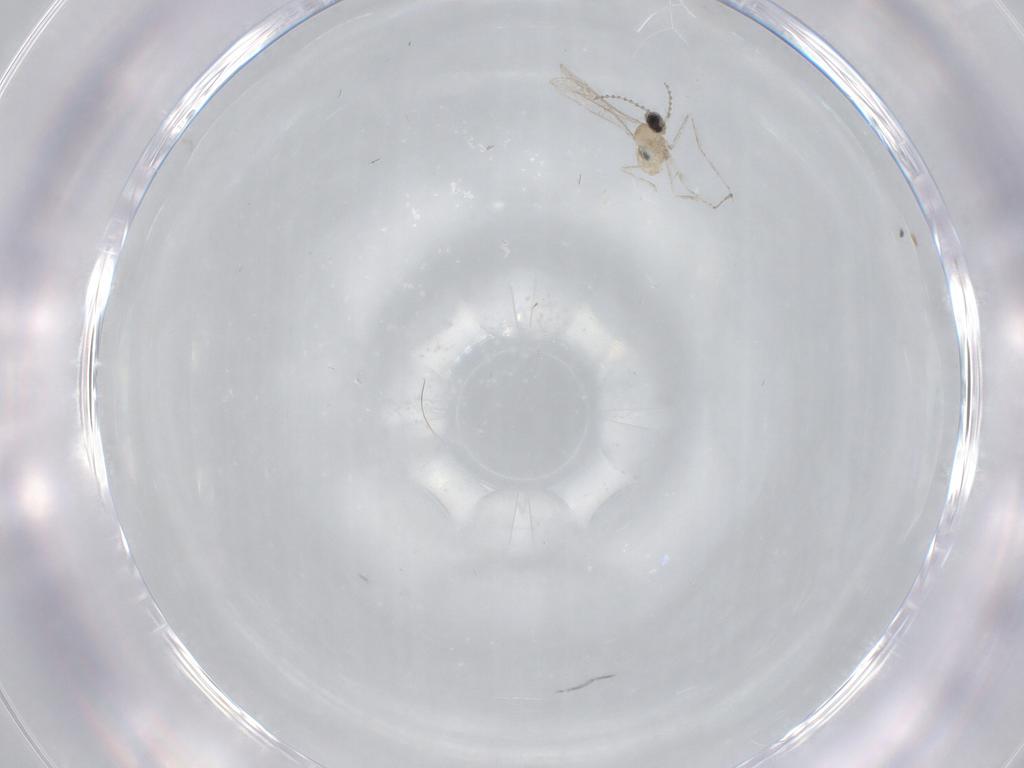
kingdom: Animalia
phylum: Arthropoda
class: Insecta
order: Diptera
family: Cecidomyiidae
